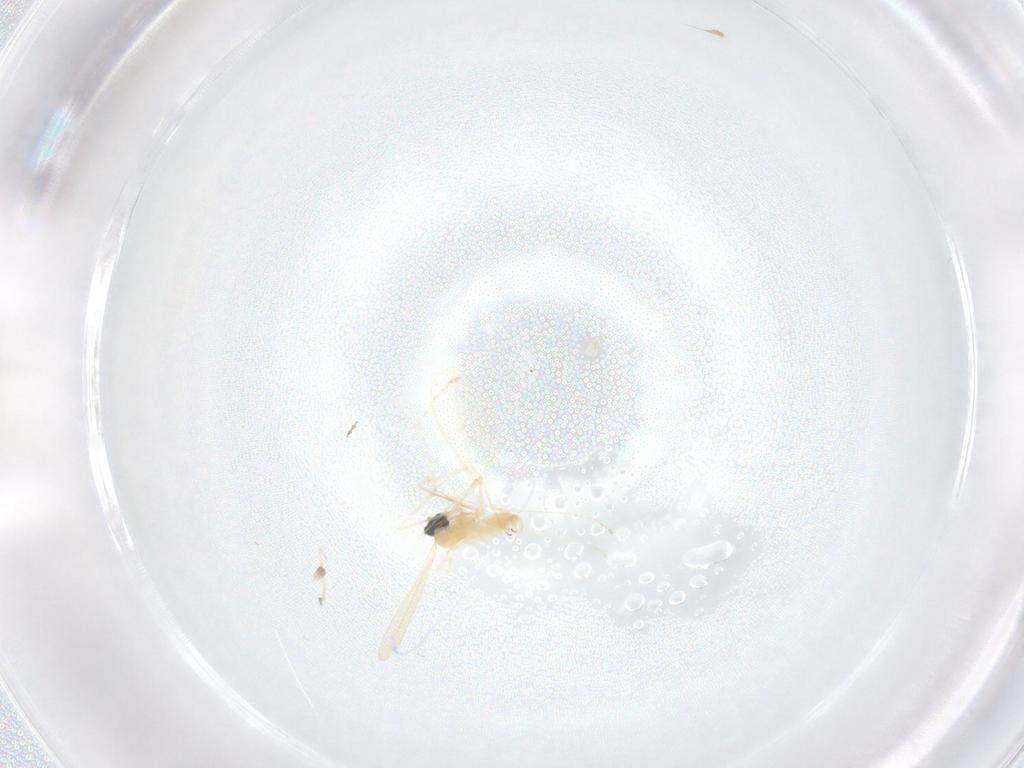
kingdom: Animalia
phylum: Arthropoda
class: Insecta
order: Diptera
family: Cecidomyiidae
